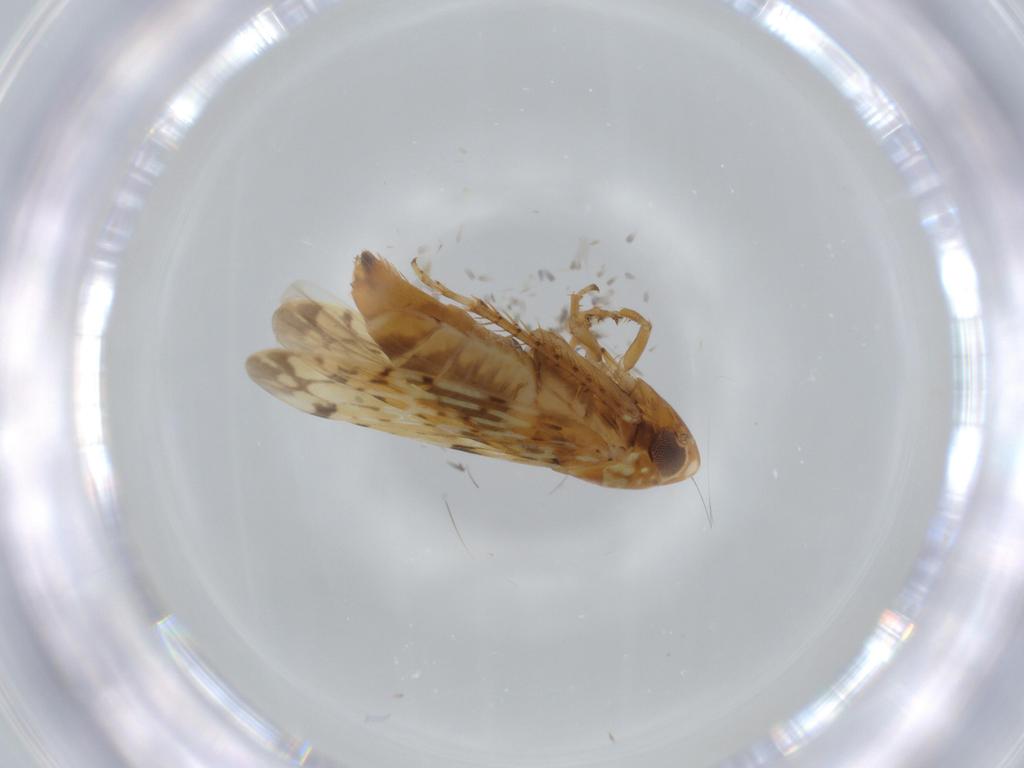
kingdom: Animalia
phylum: Arthropoda
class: Insecta
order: Hemiptera
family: Cicadellidae
